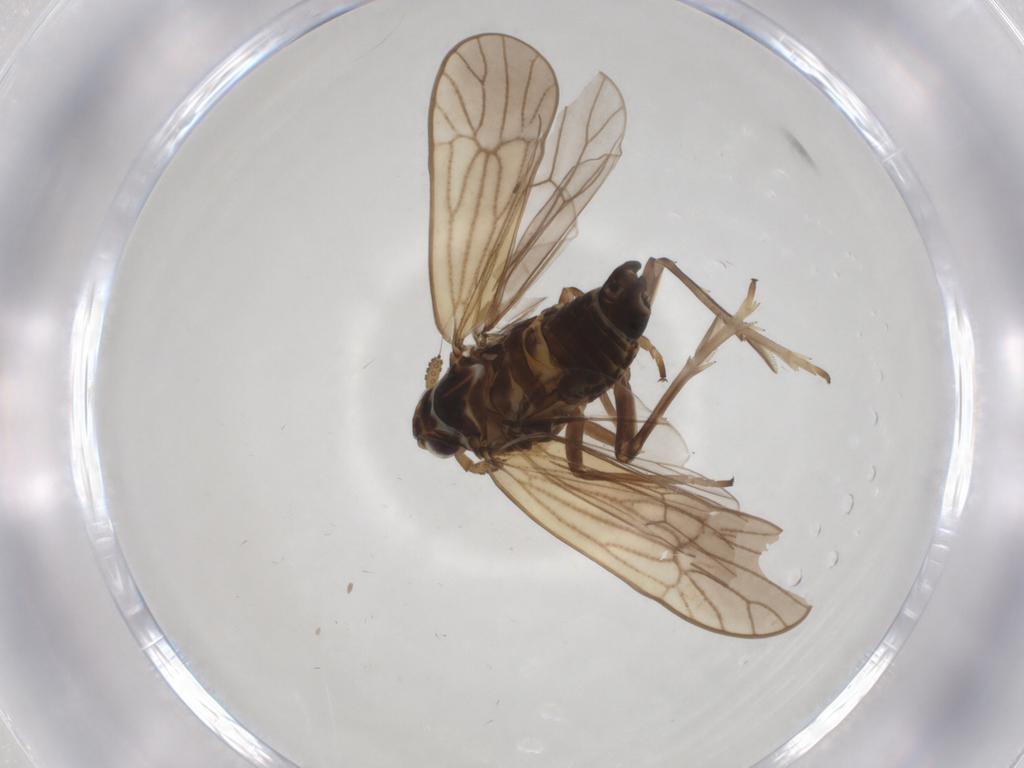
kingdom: Animalia
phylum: Arthropoda
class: Insecta
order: Hemiptera
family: Delphacidae
